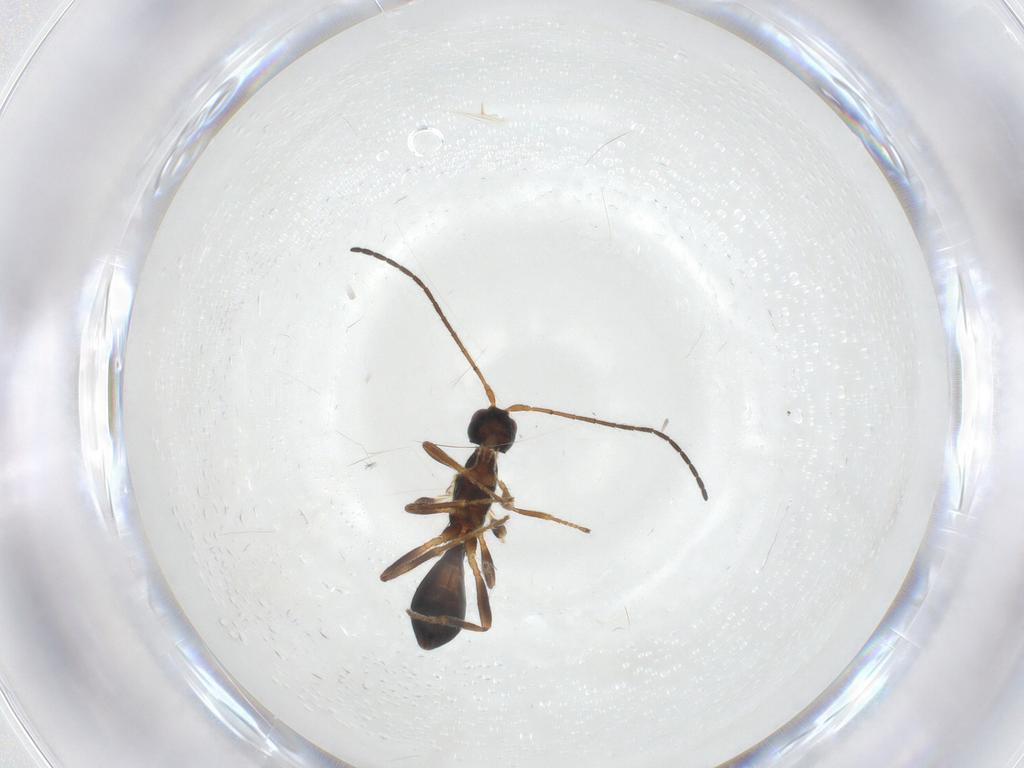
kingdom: Animalia
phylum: Arthropoda
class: Insecta
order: Hymenoptera
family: Braconidae
